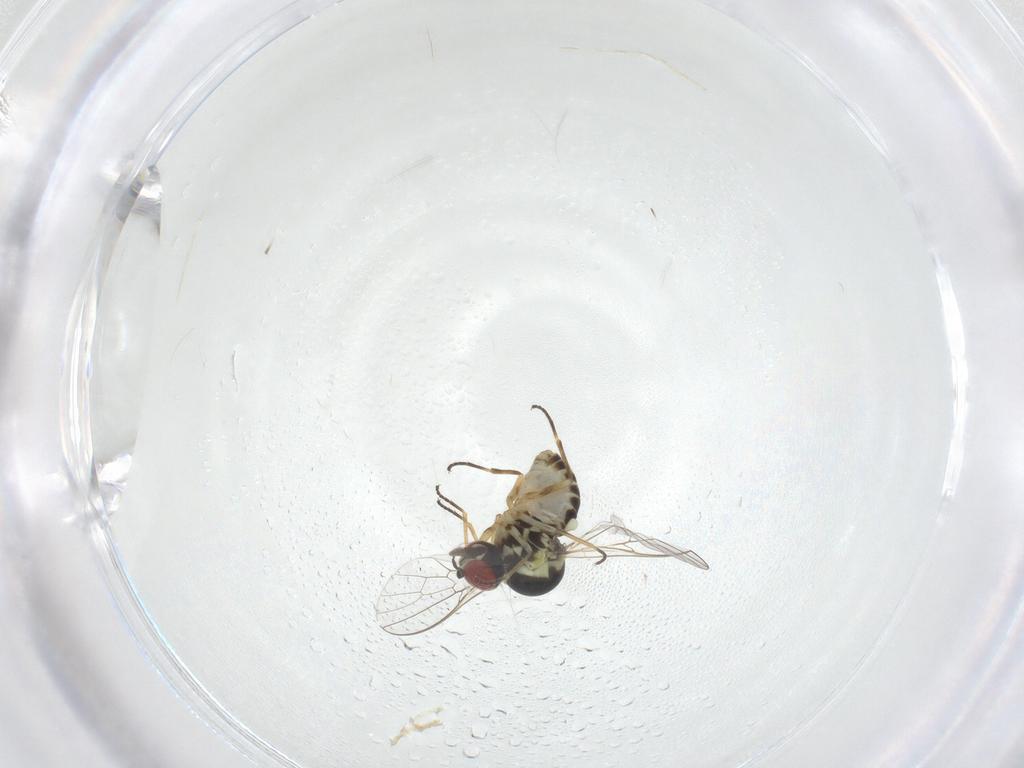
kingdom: Animalia
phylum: Arthropoda
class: Insecta
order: Diptera
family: Bombyliidae
